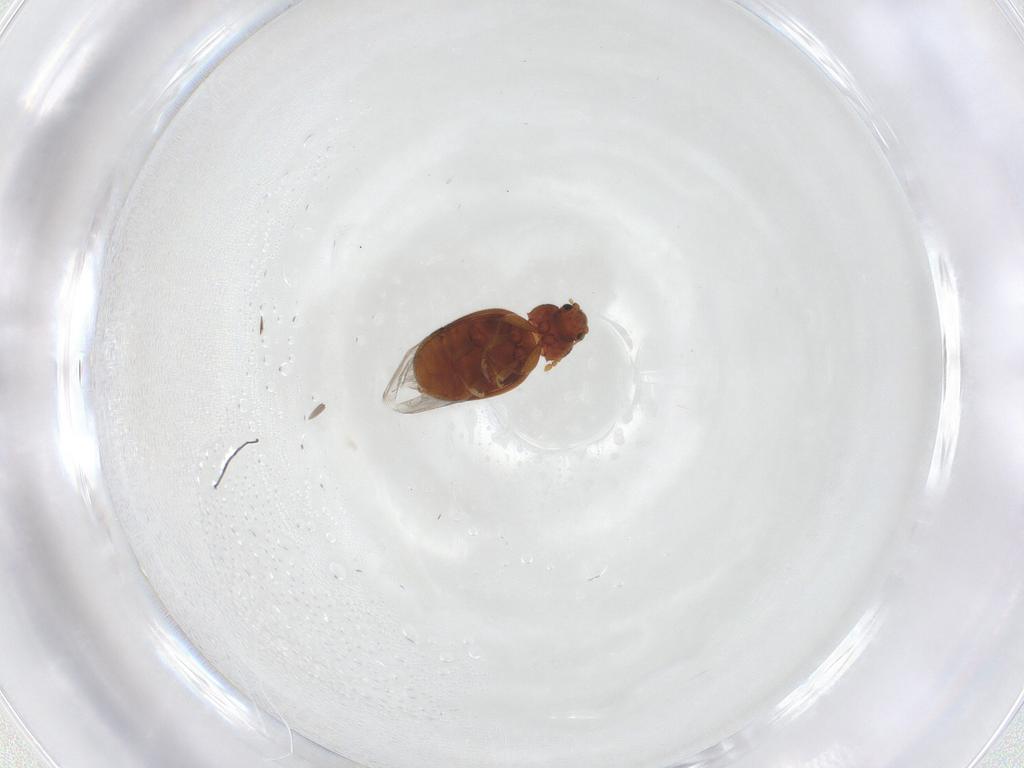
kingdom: Animalia
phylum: Arthropoda
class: Insecta
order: Coleoptera
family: Latridiidae
